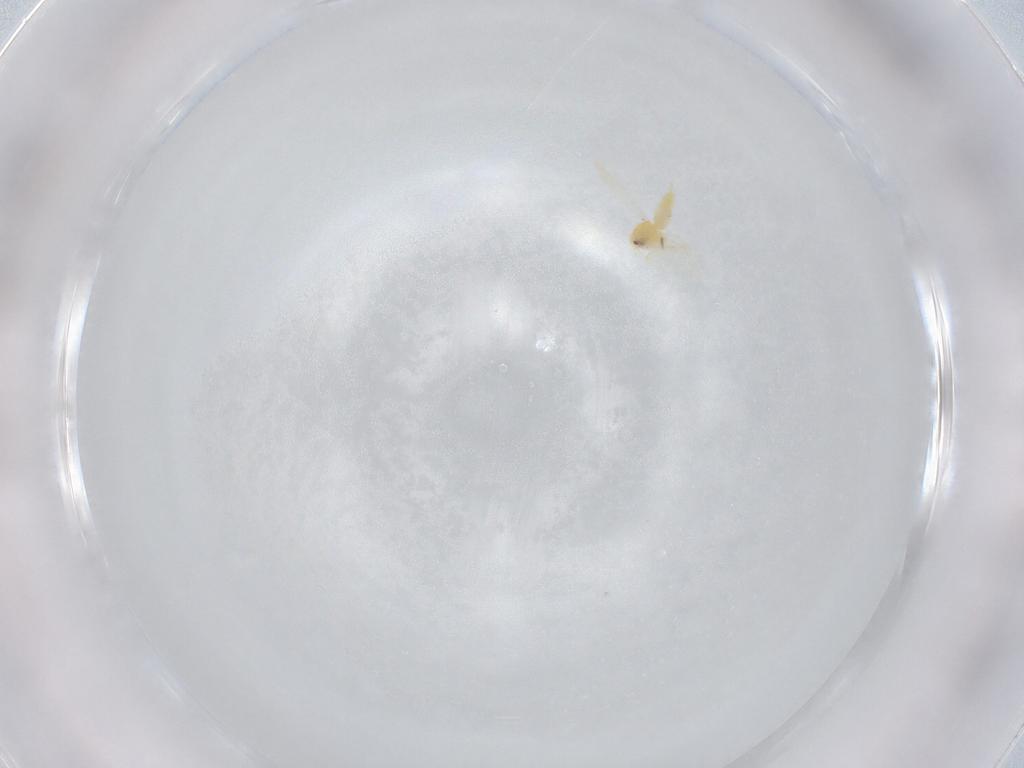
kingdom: Animalia
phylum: Arthropoda
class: Insecta
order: Hemiptera
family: Aleyrodidae
